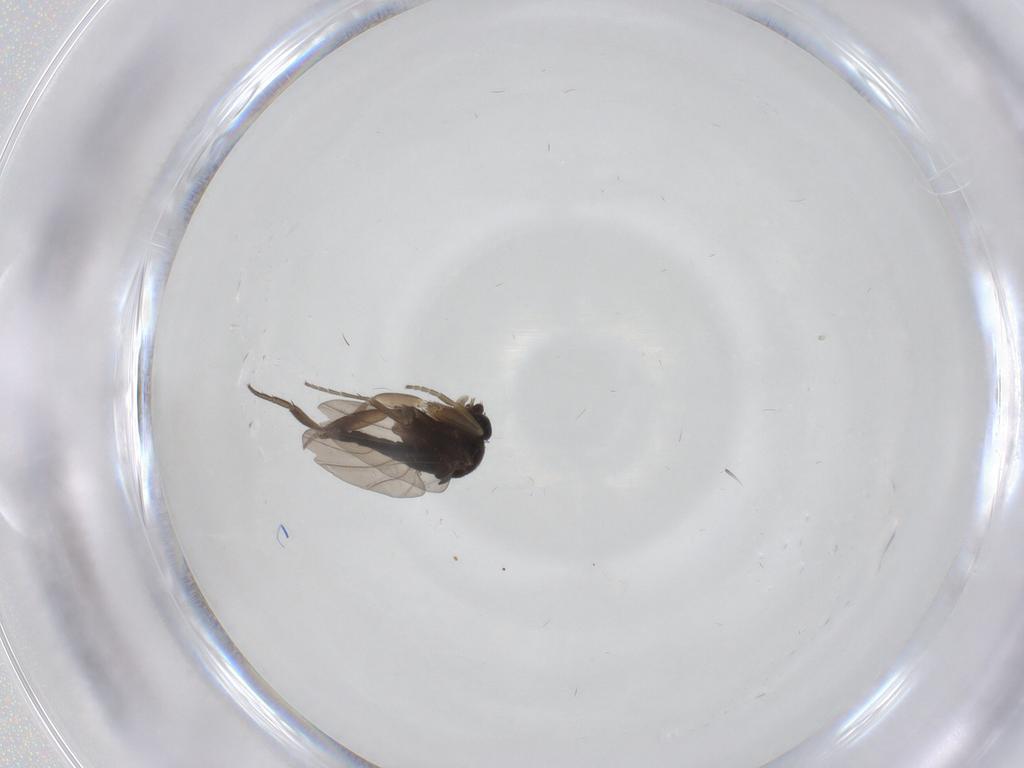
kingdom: Animalia
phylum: Arthropoda
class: Insecta
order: Diptera
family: Phoridae
